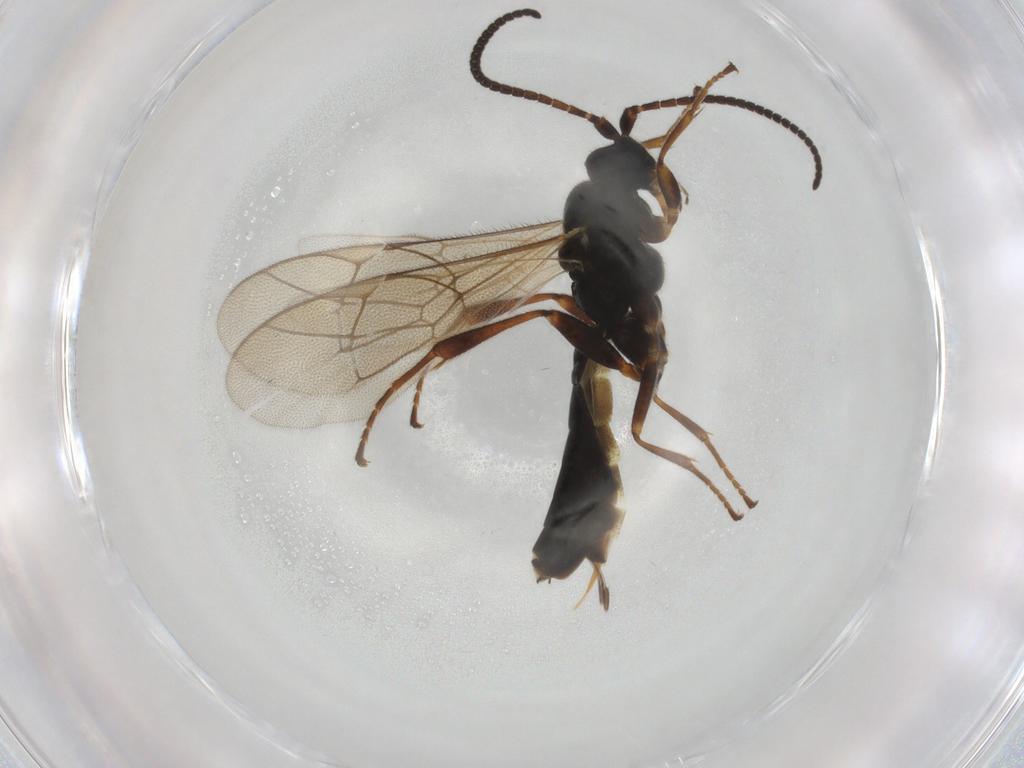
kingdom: Animalia
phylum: Arthropoda
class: Insecta
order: Hymenoptera
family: Ichneumonidae
